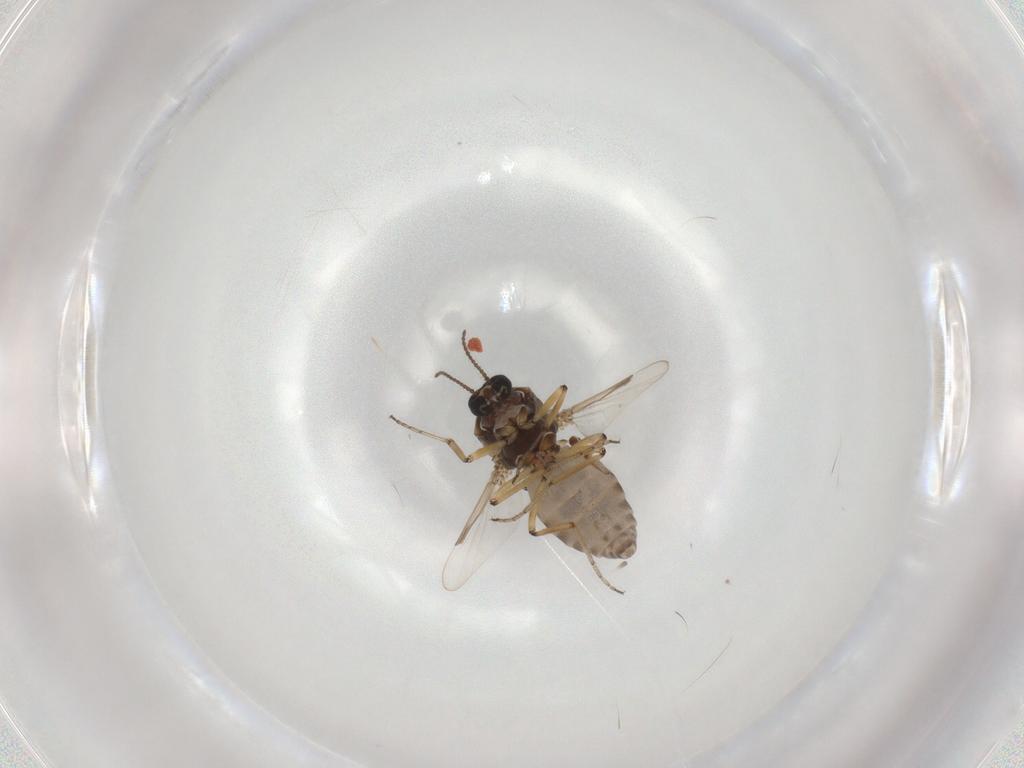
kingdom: Animalia
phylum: Arthropoda
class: Insecta
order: Diptera
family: Ceratopogonidae
